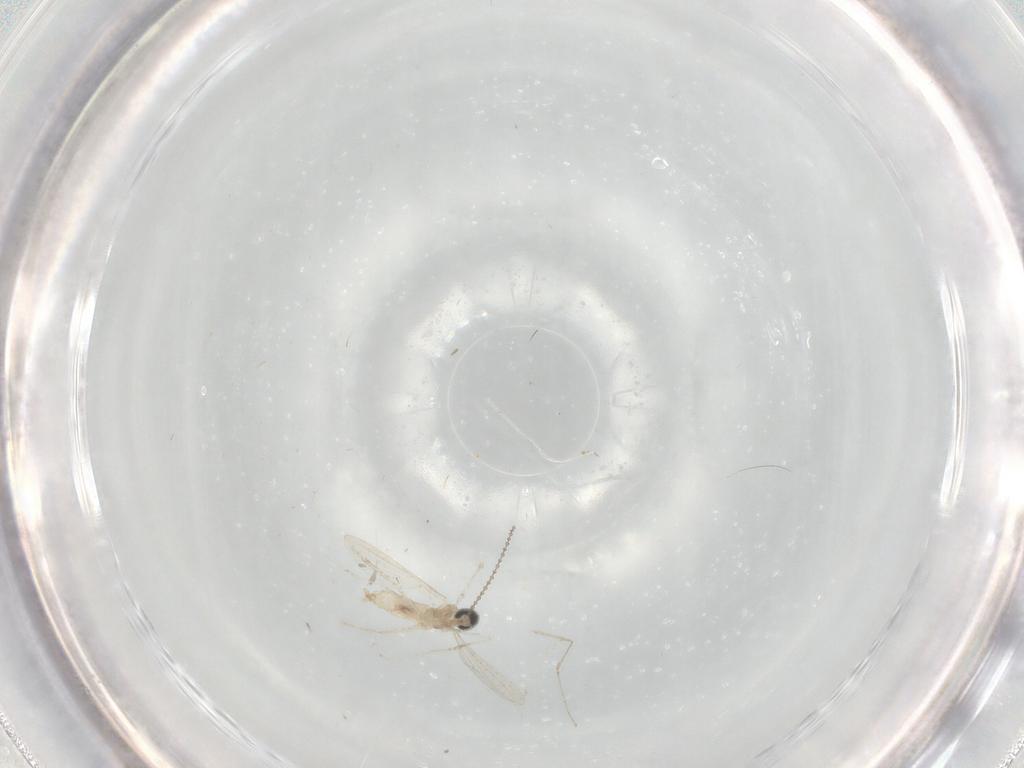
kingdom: Animalia
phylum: Arthropoda
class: Insecta
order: Diptera
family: Cecidomyiidae
